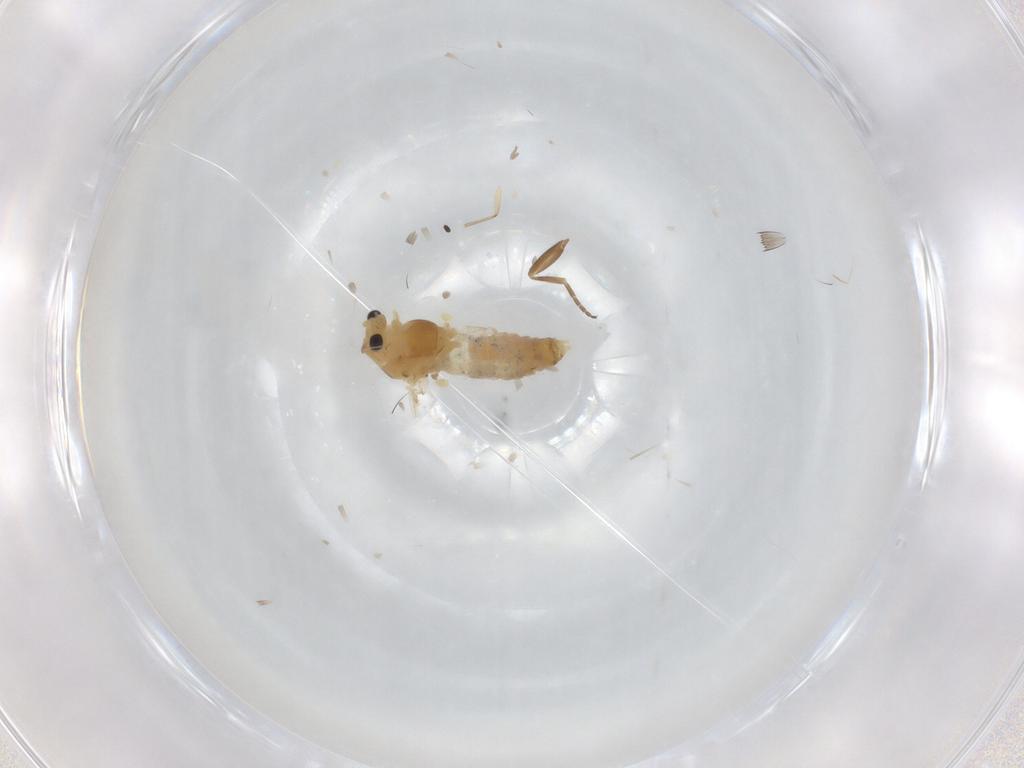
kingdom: Animalia
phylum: Arthropoda
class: Insecta
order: Diptera
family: Chironomidae
